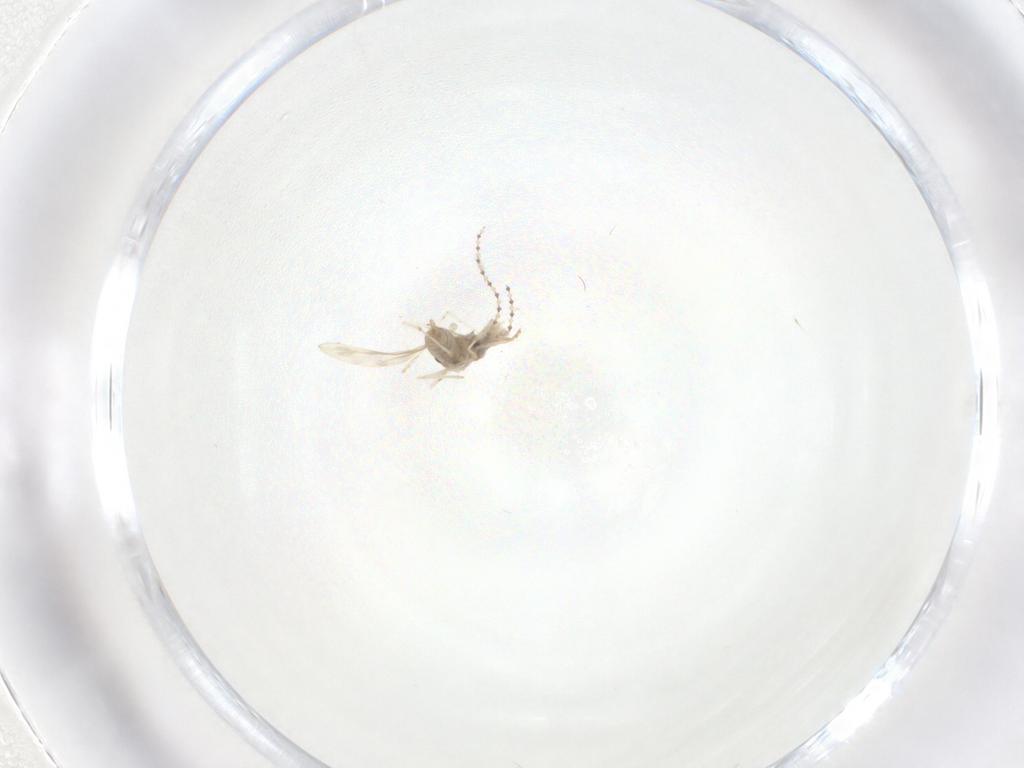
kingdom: Animalia
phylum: Arthropoda
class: Insecta
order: Diptera
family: Cecidomyiidae
